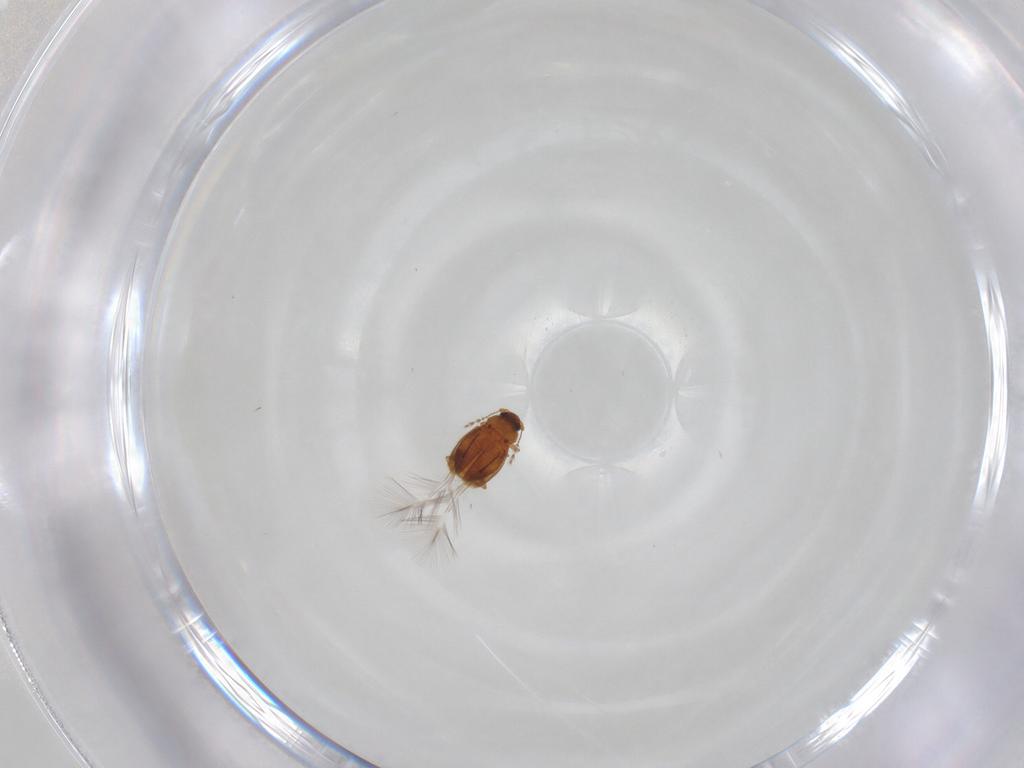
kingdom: Animalia
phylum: Arthropoda
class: Insecta
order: Coleoptera
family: Ptiliidae
